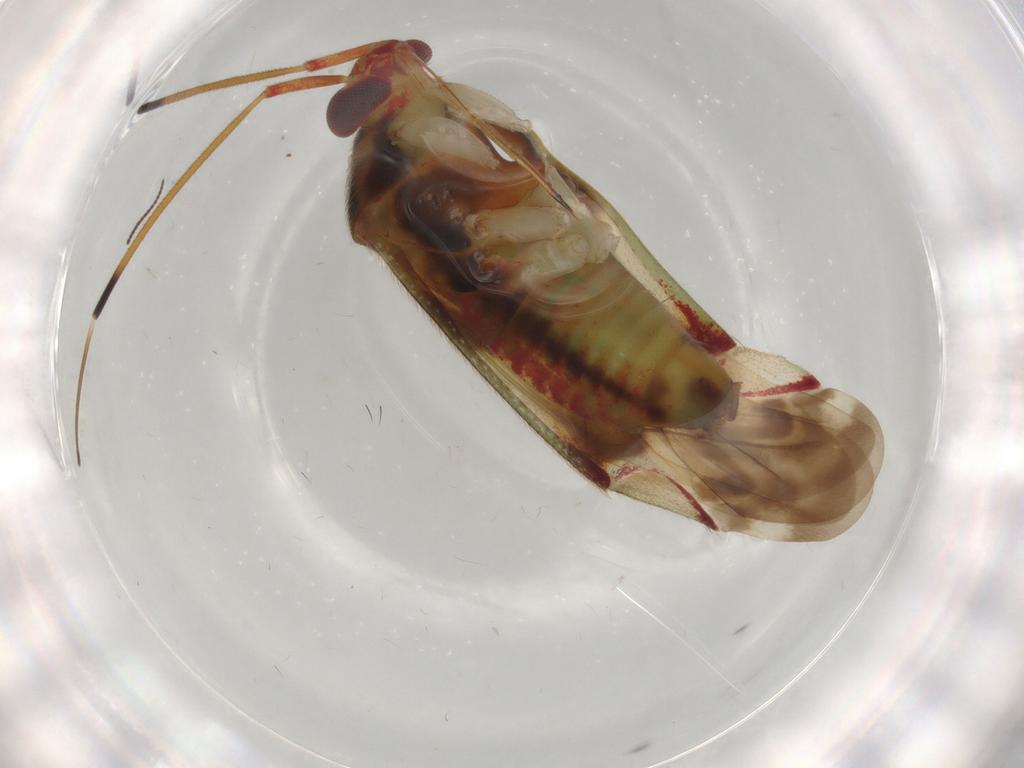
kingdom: Animalia
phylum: Arthropoda
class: Insecta
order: Hemiptera
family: Miridae
